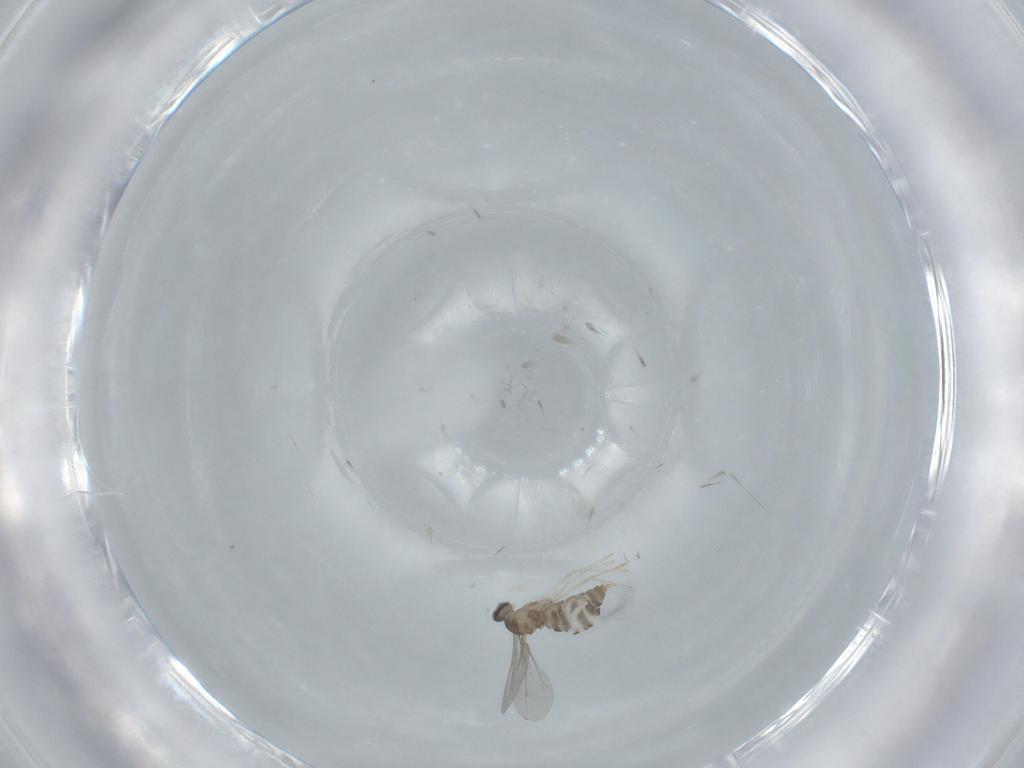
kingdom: Animalia
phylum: Arthropoda
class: Insecta
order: Diptera
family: Cecidomyiidae
